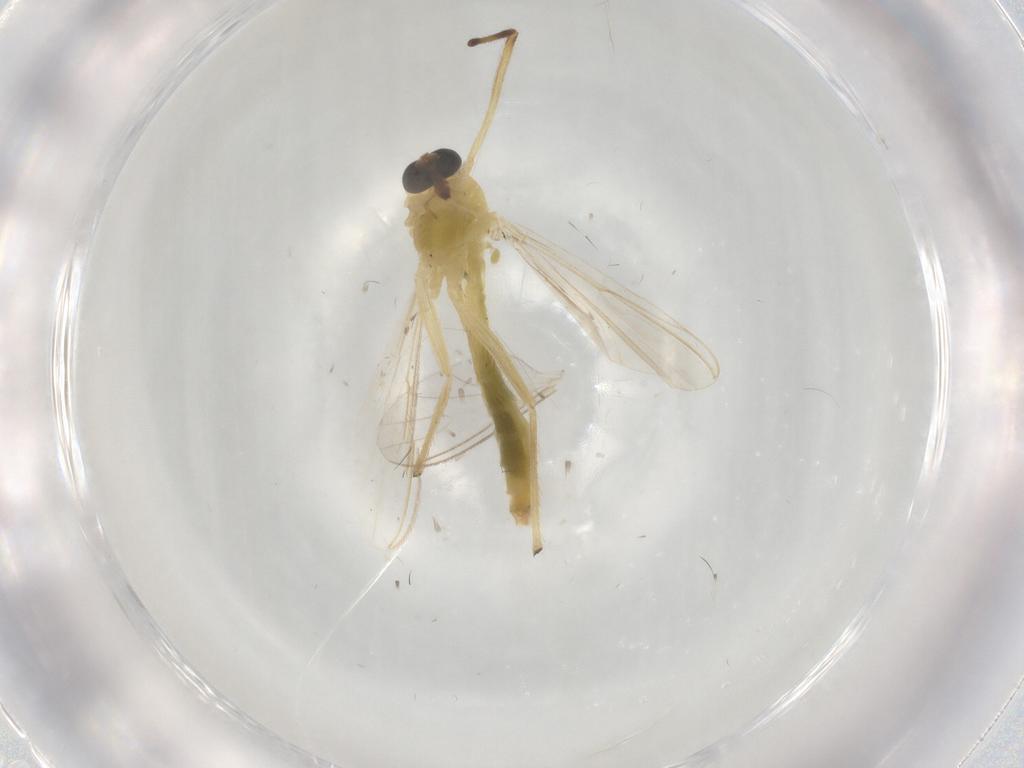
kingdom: Animalia
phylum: Arthropoda
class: Insecta
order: Diptera
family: Chironomidae
